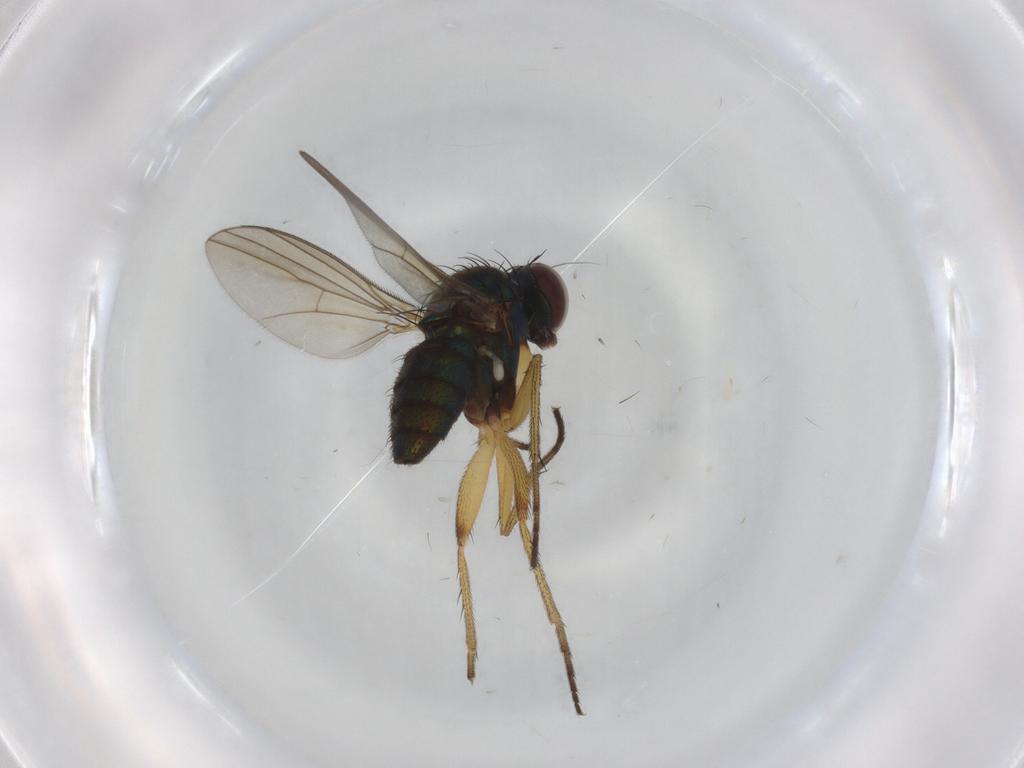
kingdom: Animalia
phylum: Arthropoda
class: Insecta
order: Diptera
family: Dolichopodidae
